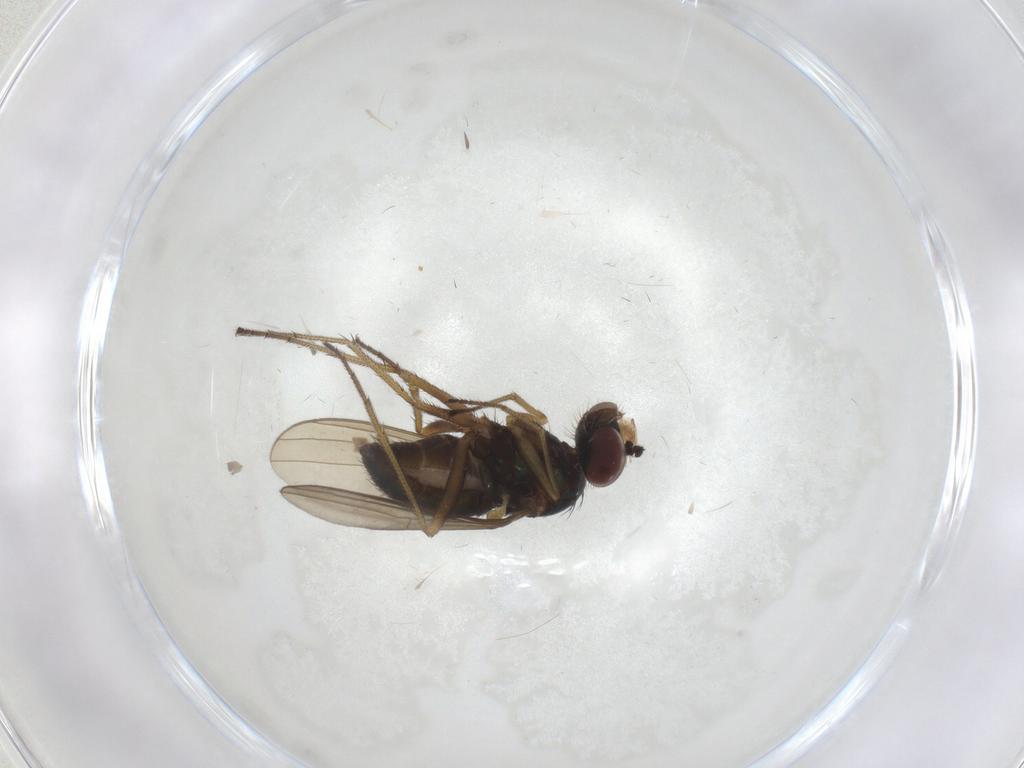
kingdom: Animalia
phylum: Arthropoda
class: Insecta
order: Diptera
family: Dolichopodidae
